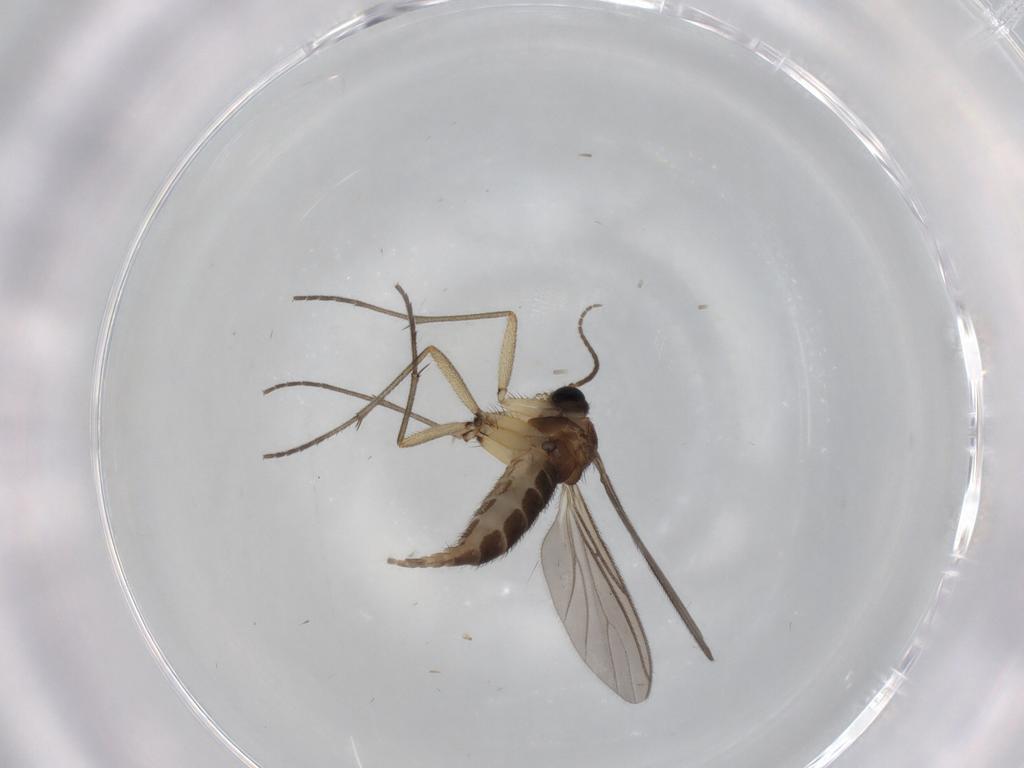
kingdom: Animalia
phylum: Arthropoda
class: Insecta
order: Diptera
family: Sciaridae
